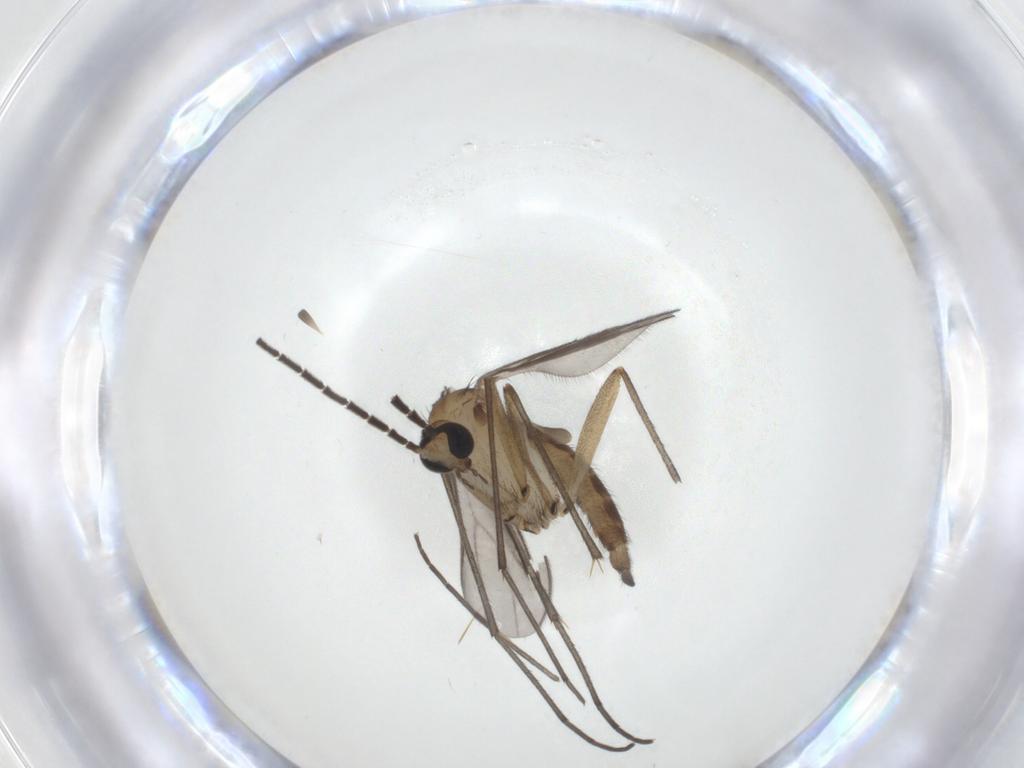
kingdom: Animalia
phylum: Arthropoda
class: Insecta
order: Diptera
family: Sciaridae
